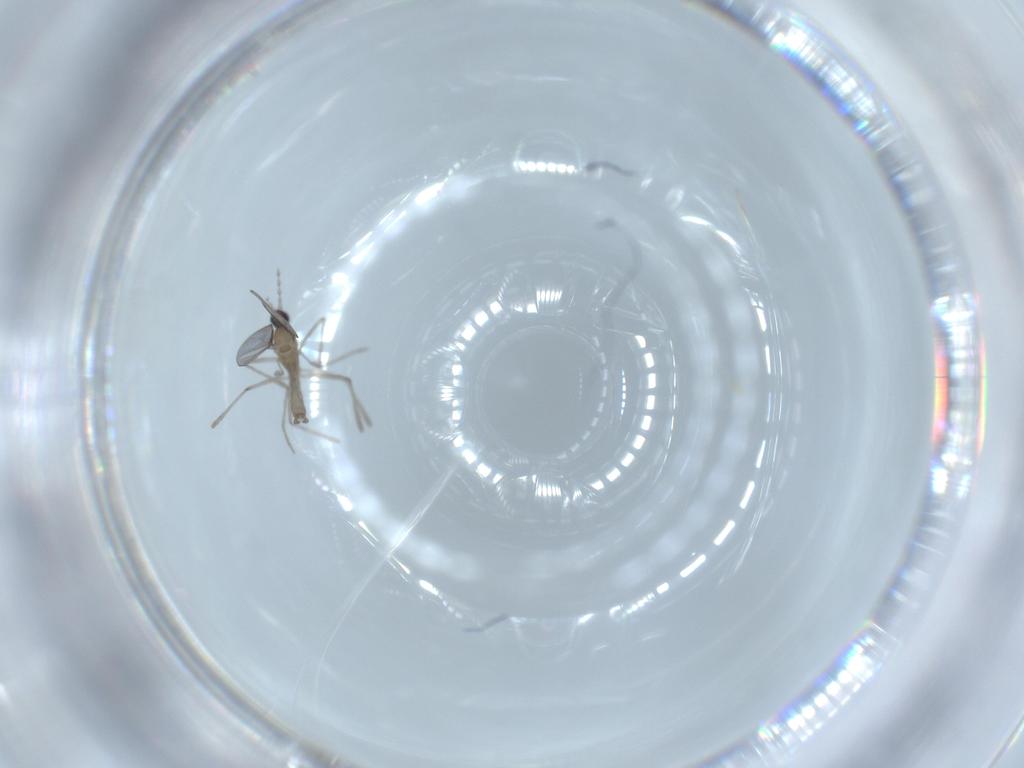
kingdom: Animalia
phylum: Arthropoda
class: Insecta
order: Diptera
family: Cecidomyiidae
